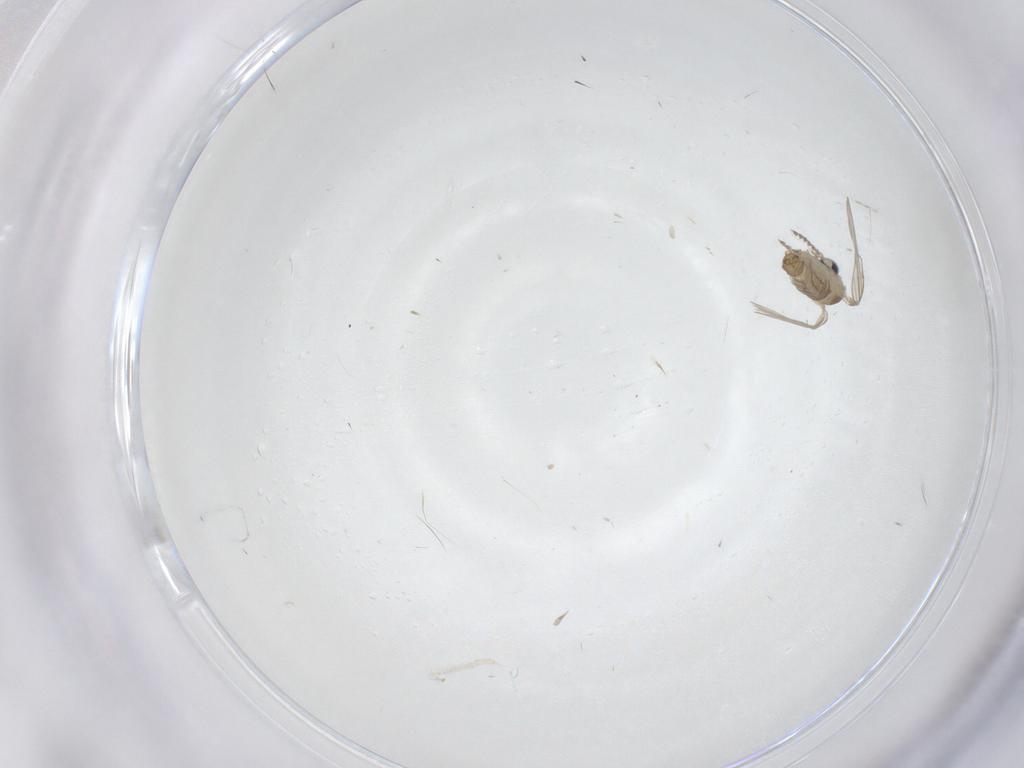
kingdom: Animalia
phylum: Arthropoda
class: Insecta
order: Diptera
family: Psychodidae
